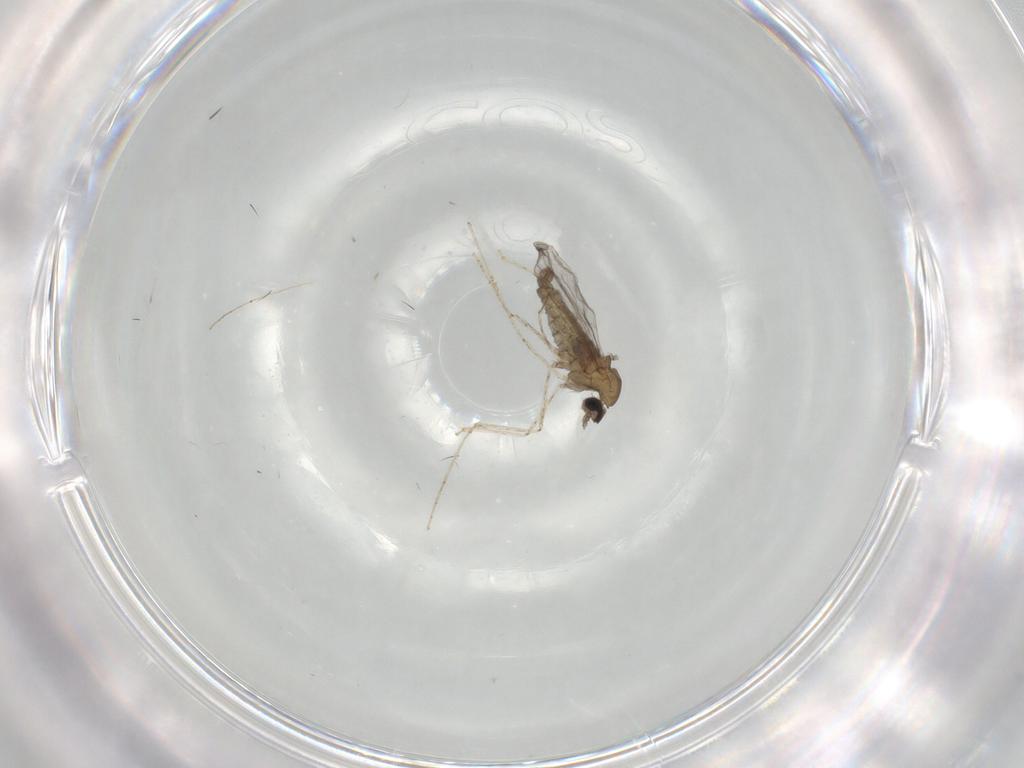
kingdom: Animalia
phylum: Arthropoda
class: Insecta
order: Diptera
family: Cecidomyiidae
